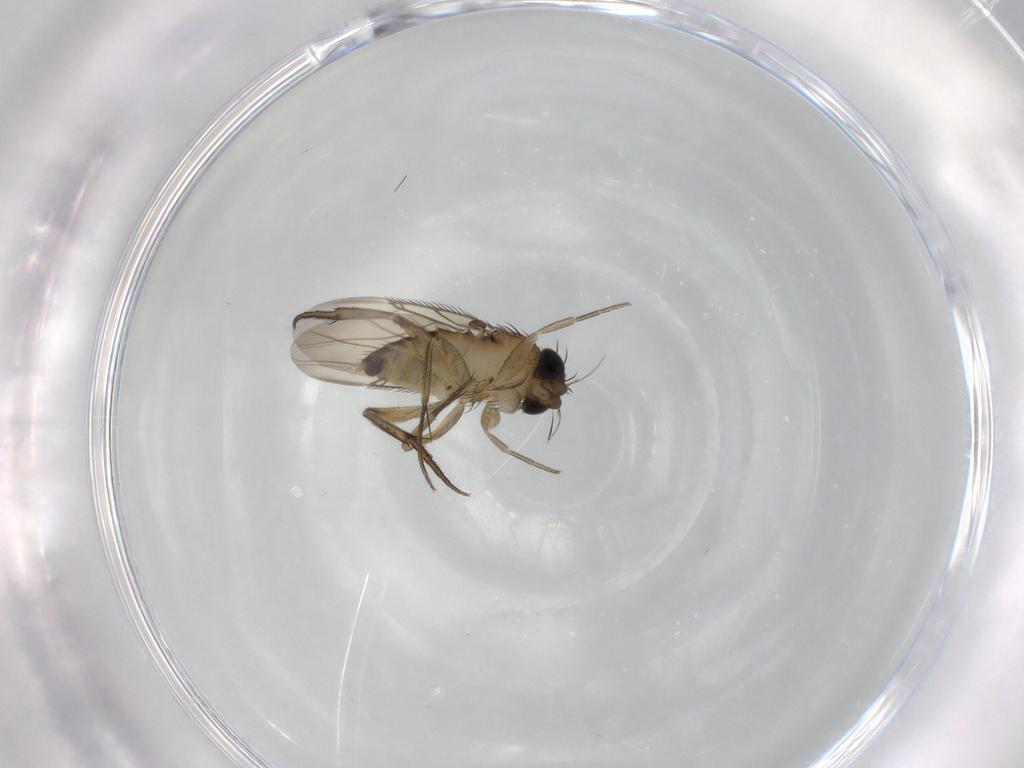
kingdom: Animalia
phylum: Arthropoda
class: Insecta
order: Diptera
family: Phoridae
